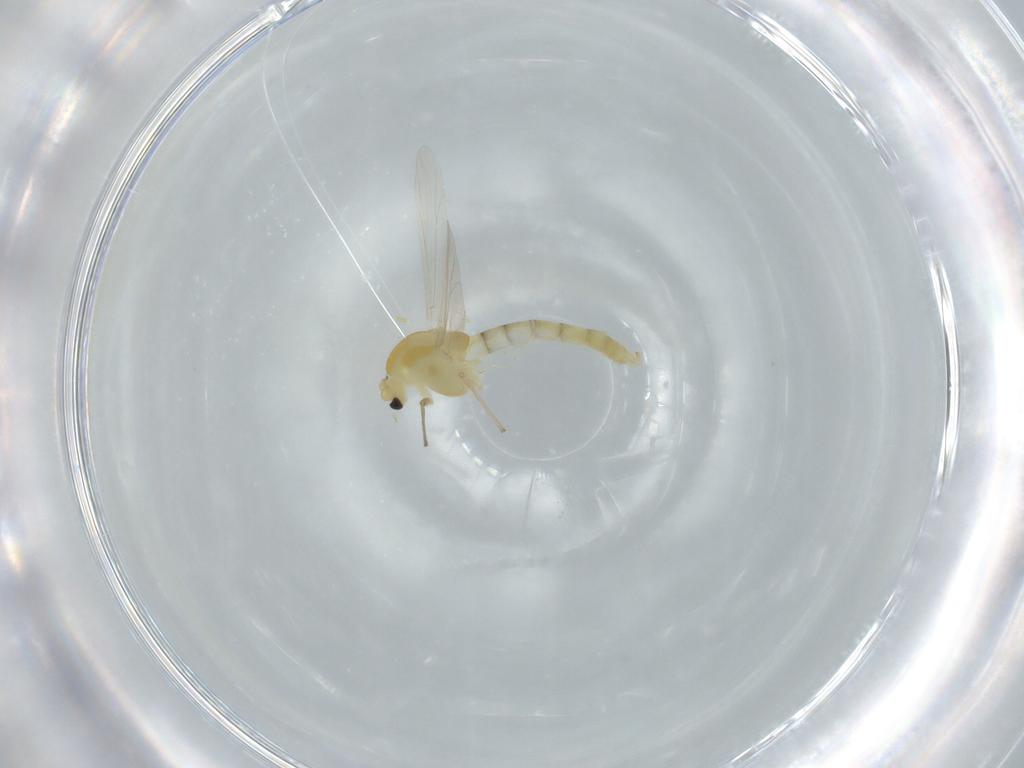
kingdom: Animalia
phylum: Arthropoda
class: Insecta
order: Diptera
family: Chironomidae
